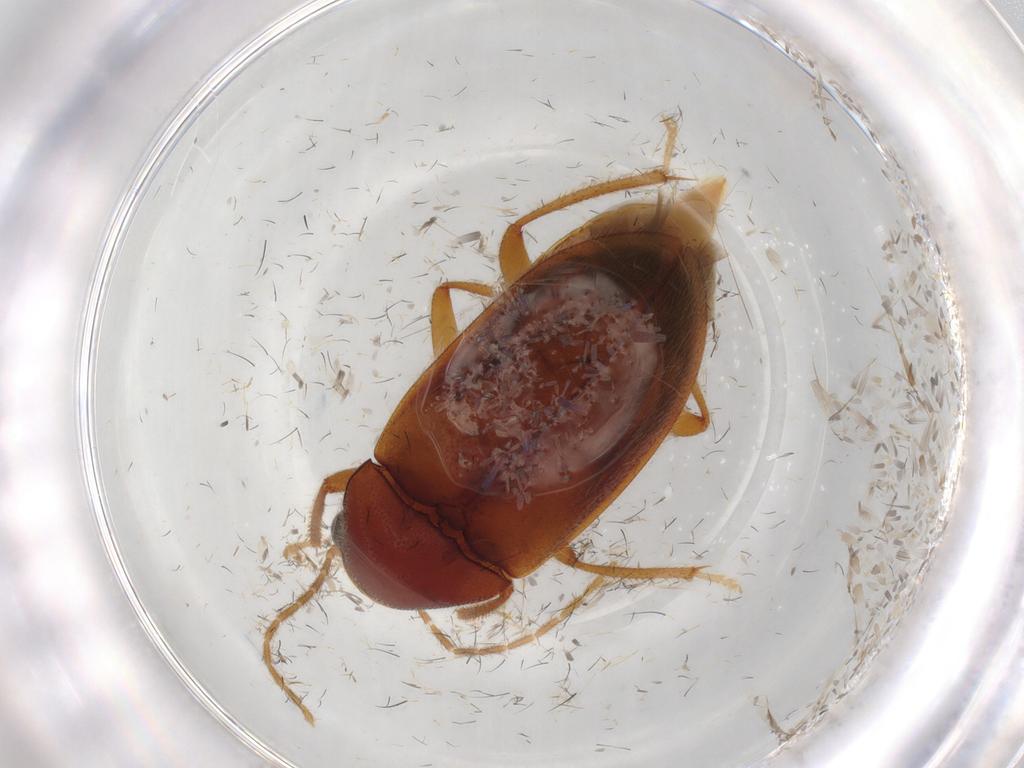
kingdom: Animalia
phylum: Arthropoda
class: Insecta
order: Coleoptera
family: Ptilodactylidae
